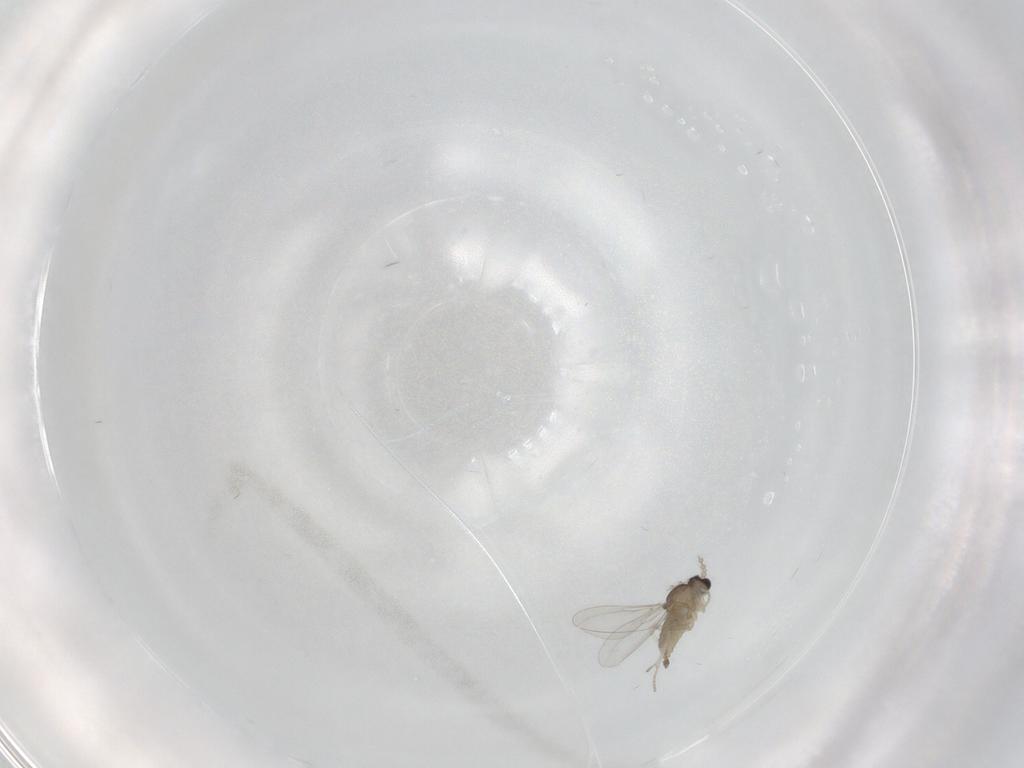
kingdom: Animalia
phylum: Arthropoda
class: Insecta
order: Diptera
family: Cecidomyiidae
